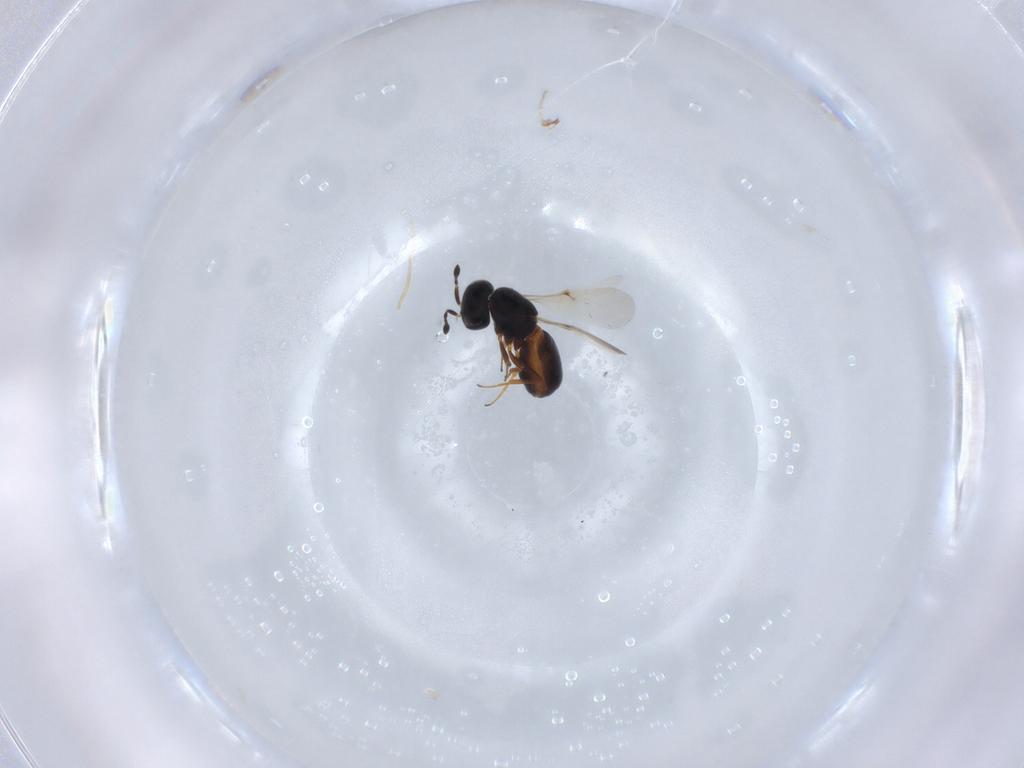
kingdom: Animalia
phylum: Arthropoda
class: Insecta
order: Hymenoptera
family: Scelionidae
